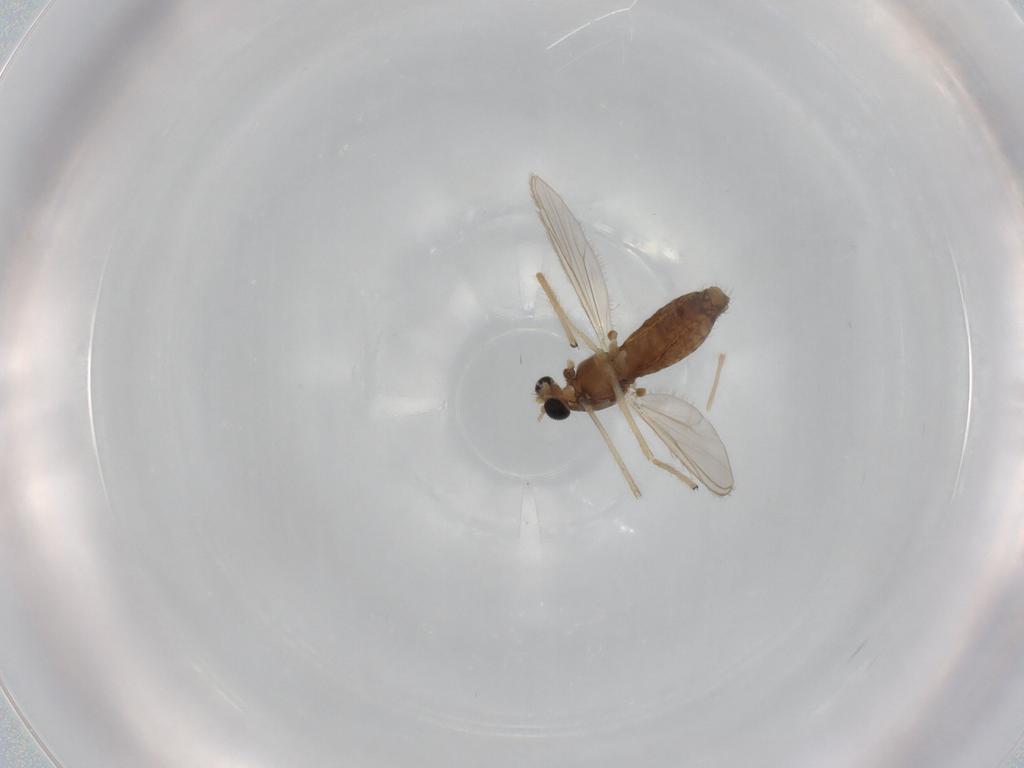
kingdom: Animalia
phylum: Arthropoda
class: Insecta
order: Diptera
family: Chironomidae
